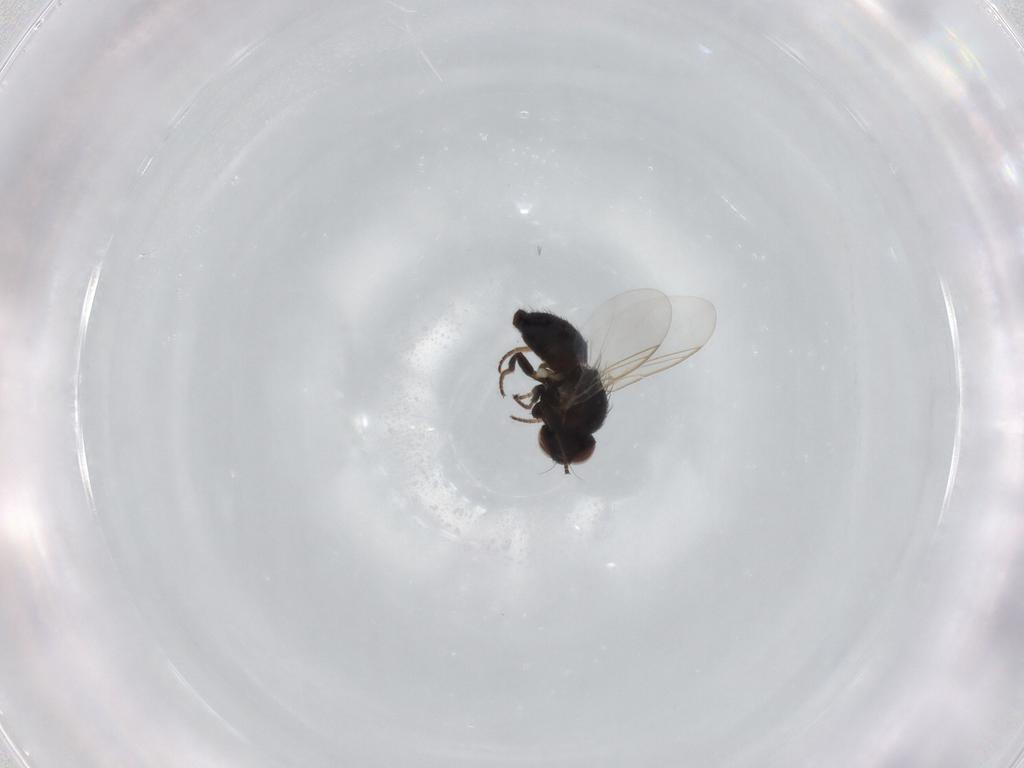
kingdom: Animalia
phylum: Arthropoda
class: Insecta
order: Diptera
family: Agromyzidae
